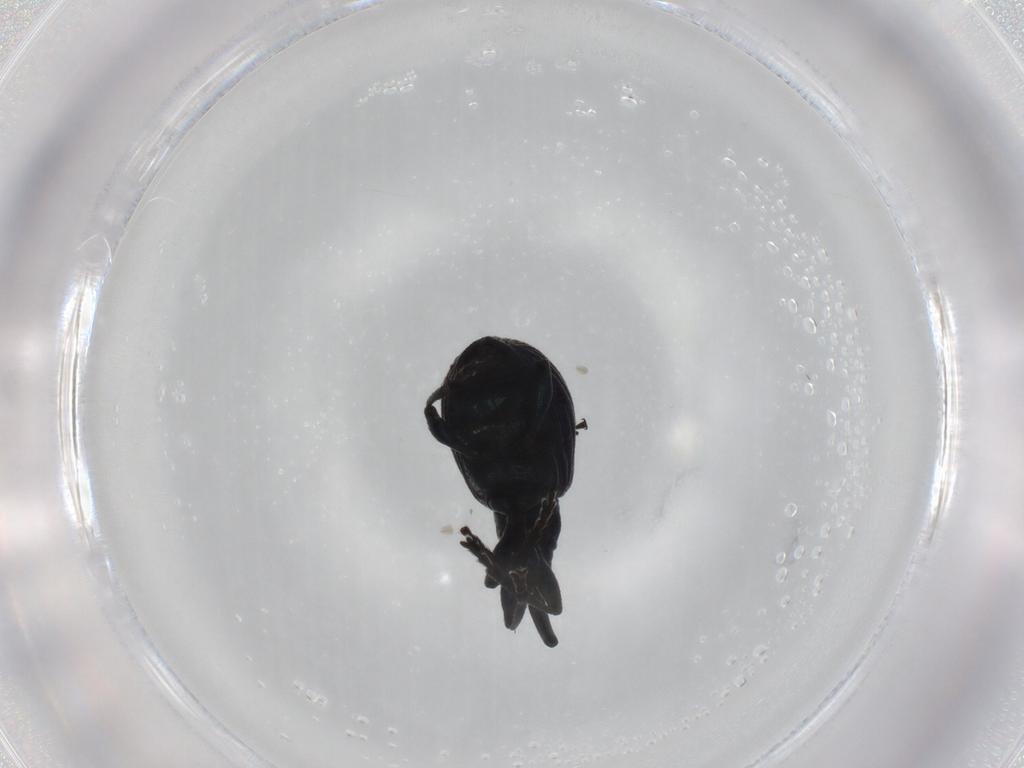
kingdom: Animalia
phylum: Arthropoda
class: Insecta
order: Coleoptera
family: Brentidae
